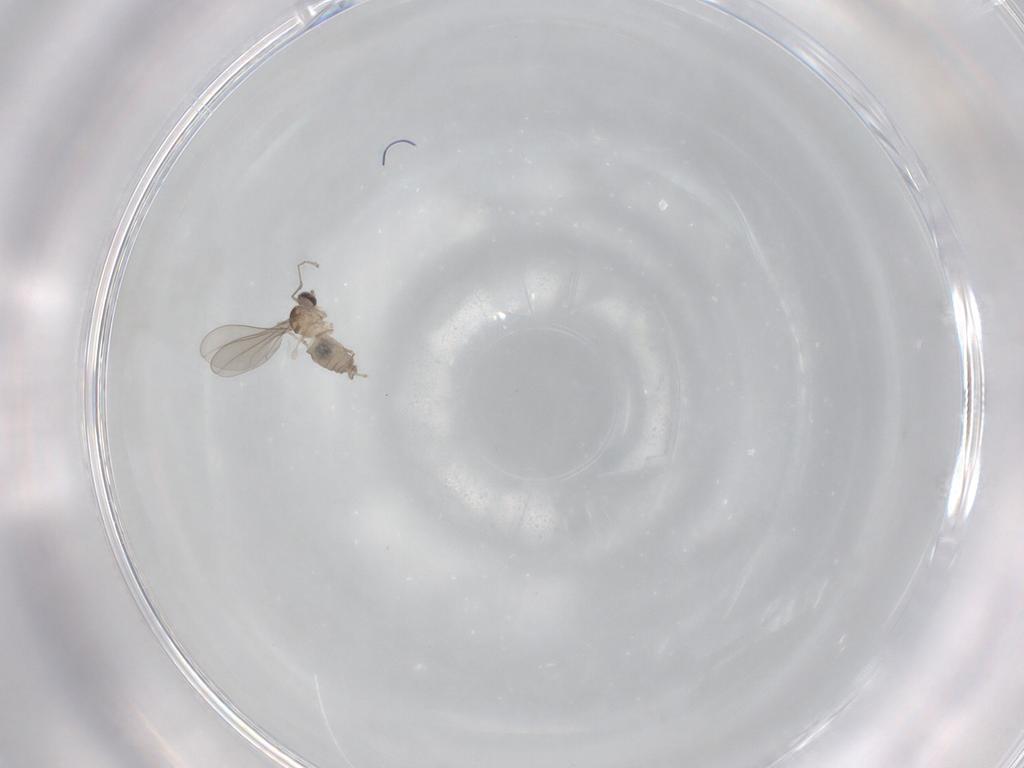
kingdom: Animalia
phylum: Arthropoda
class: Insecta
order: Diptera
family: Cecidomyiidae
